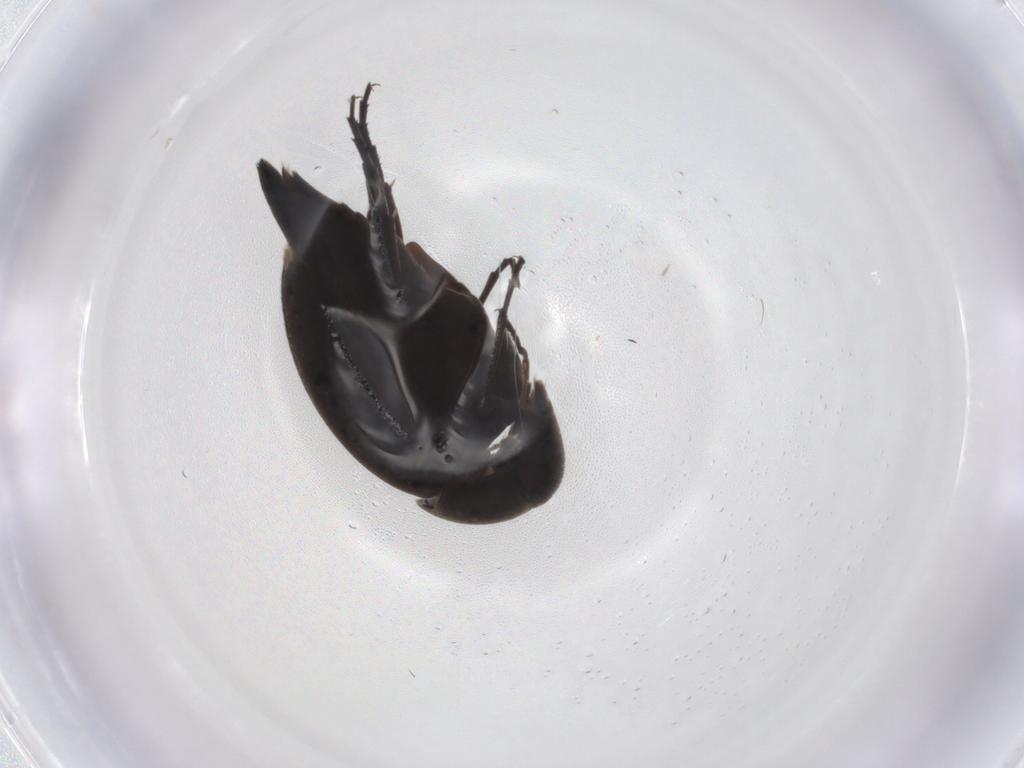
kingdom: Animalia
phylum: Arthropoda
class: Insecta
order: Coleoptera
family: Mordellidae
